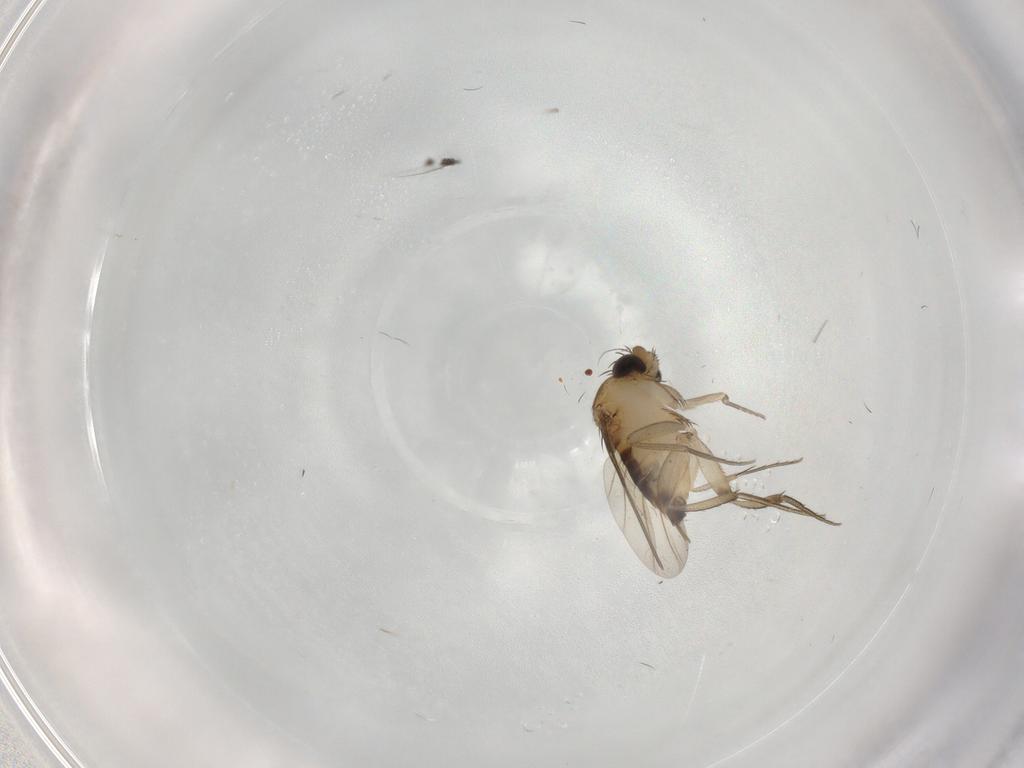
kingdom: Animalia
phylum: Arthropoda
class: Insecta
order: Diptera
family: Phoridae
